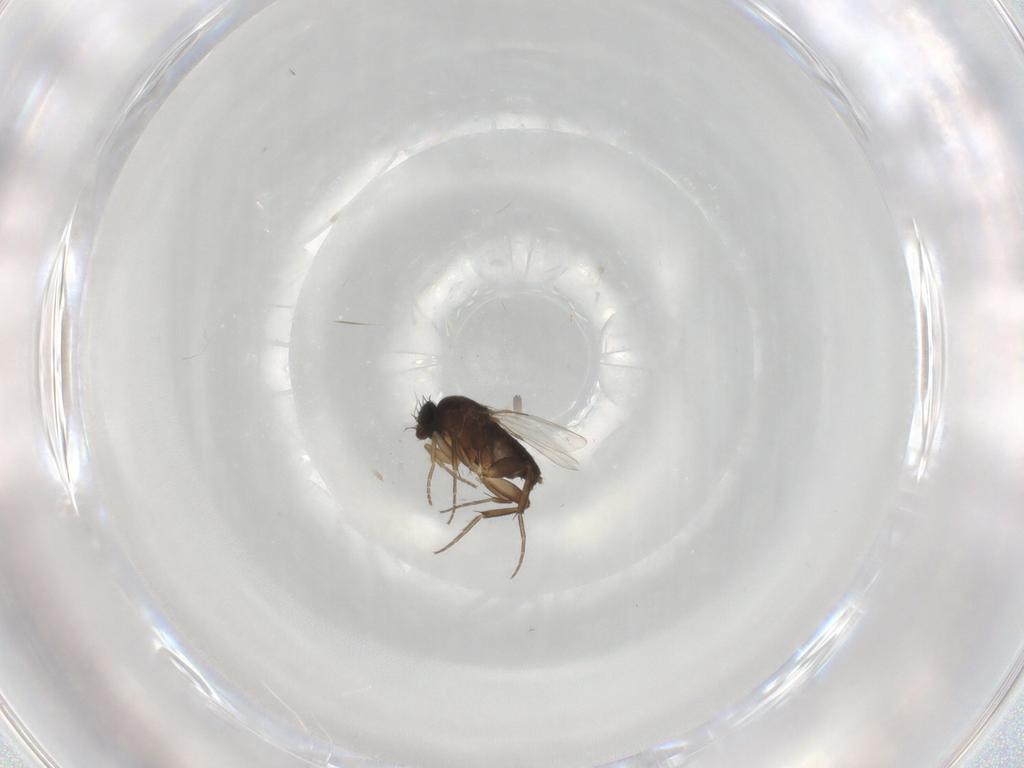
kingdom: Animalia
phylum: Arthropoda
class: Insecta
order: Diptera
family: Phoridae
